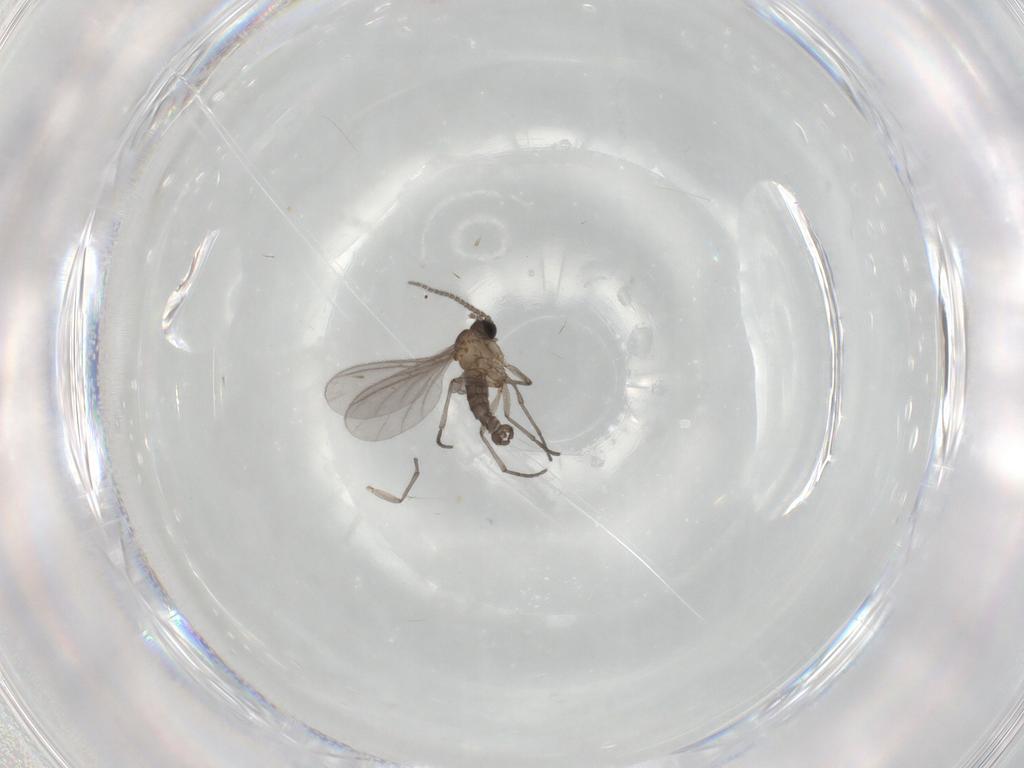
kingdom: Animalia
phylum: Arthropoda
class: Insecta
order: Diptera
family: Sciaridae
